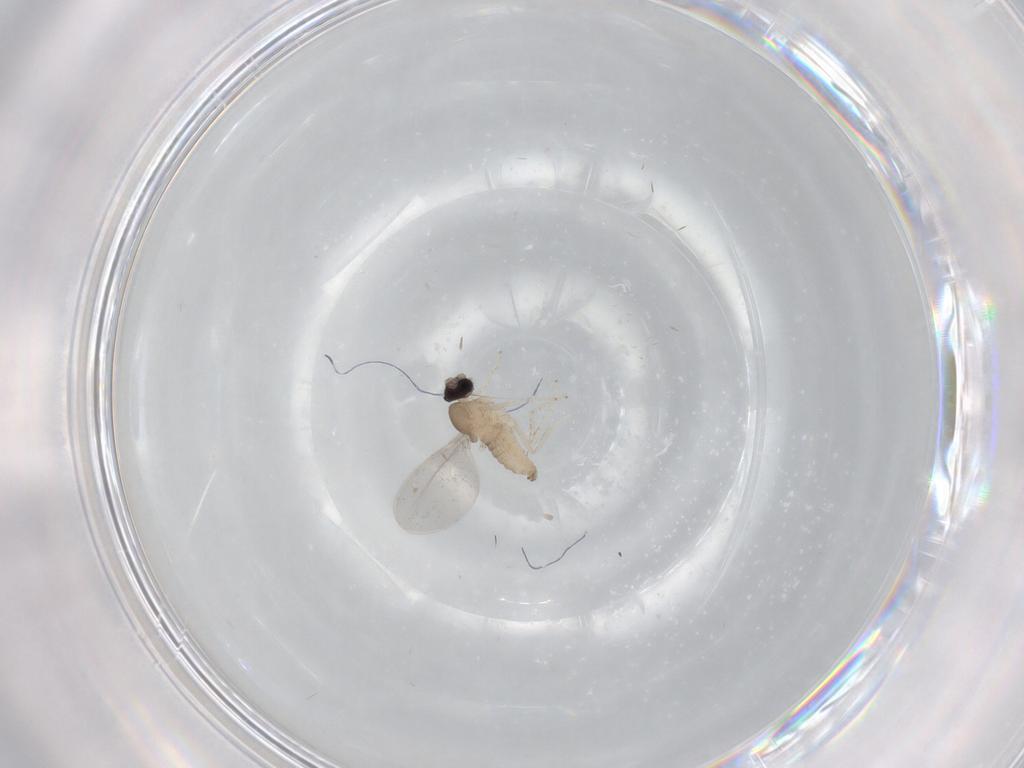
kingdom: Animalia
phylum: Arthropoda
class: Insecta
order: Diptera
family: Cecidomyiidae
